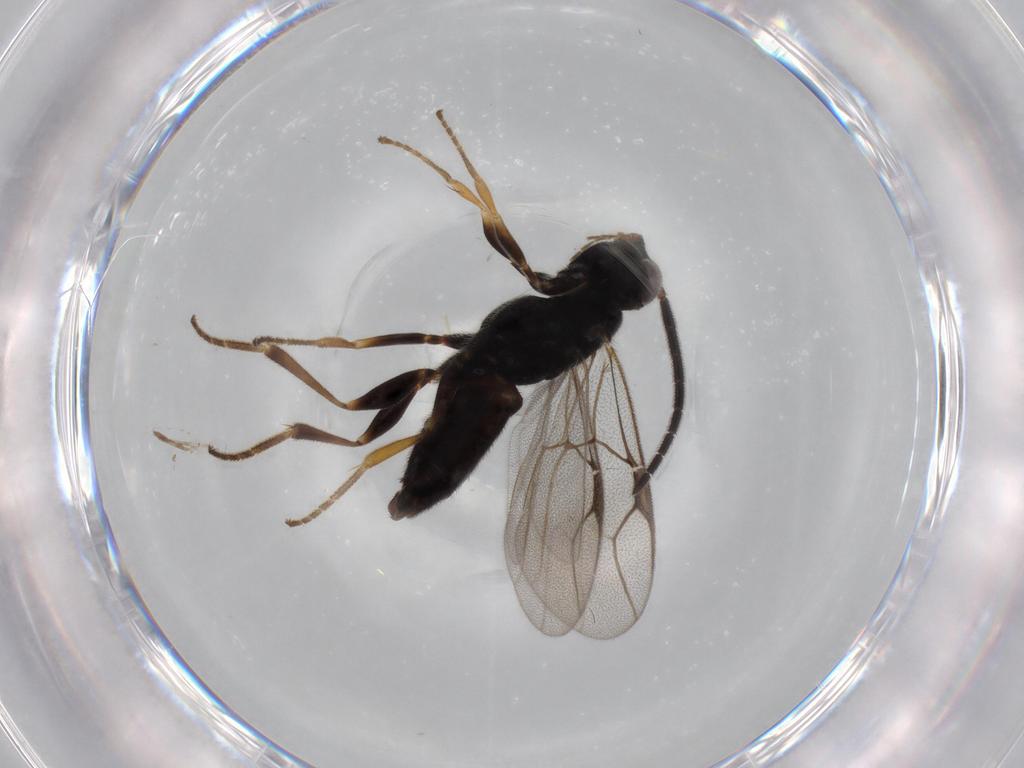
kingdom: Animalia
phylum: Arthropoda
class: Insecta
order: Hymenoptera
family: Dryinidae
